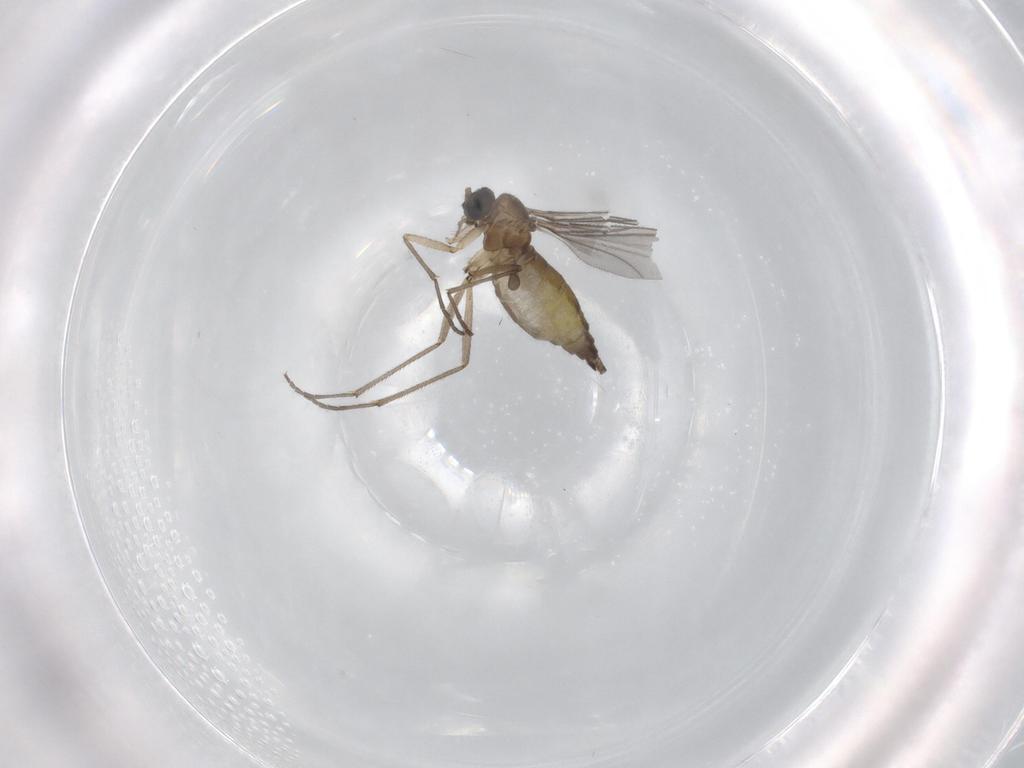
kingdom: Animalia
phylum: Arthropoda
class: Insecta
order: Diptera
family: Sciaridae
